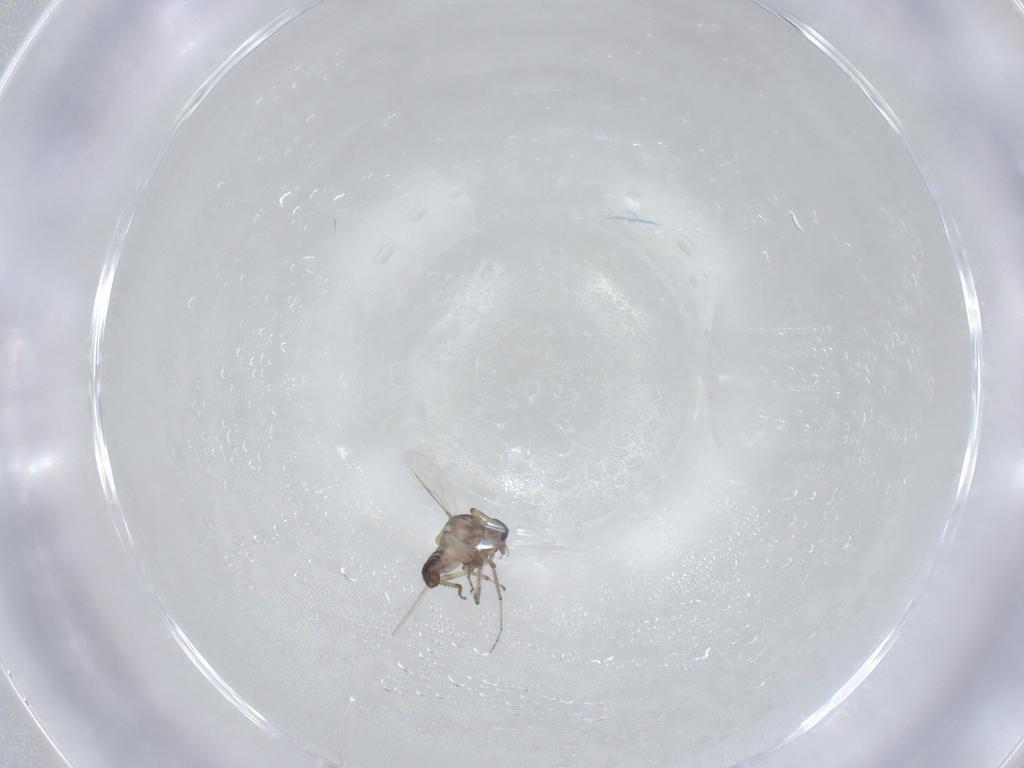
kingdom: Animalia
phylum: Arthropoda
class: Insecta
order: Diptera
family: Ceratopogonidae
